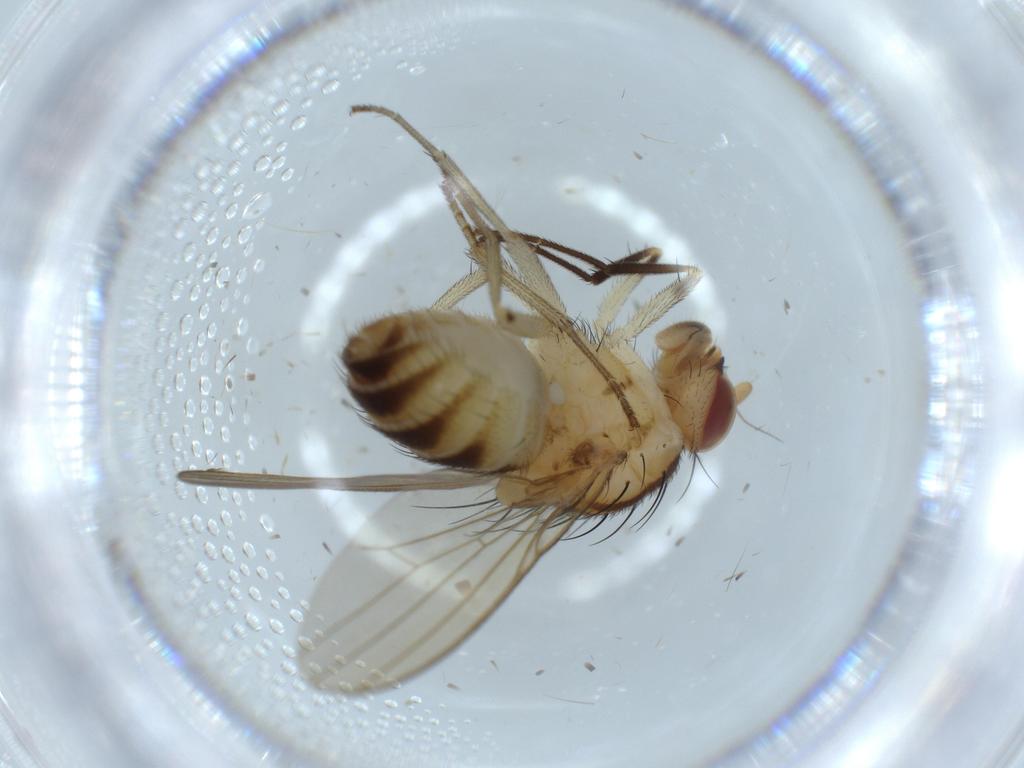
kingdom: Animalia
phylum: Arthropoda
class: Insecta
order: Diptera
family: Lauxaniidae
